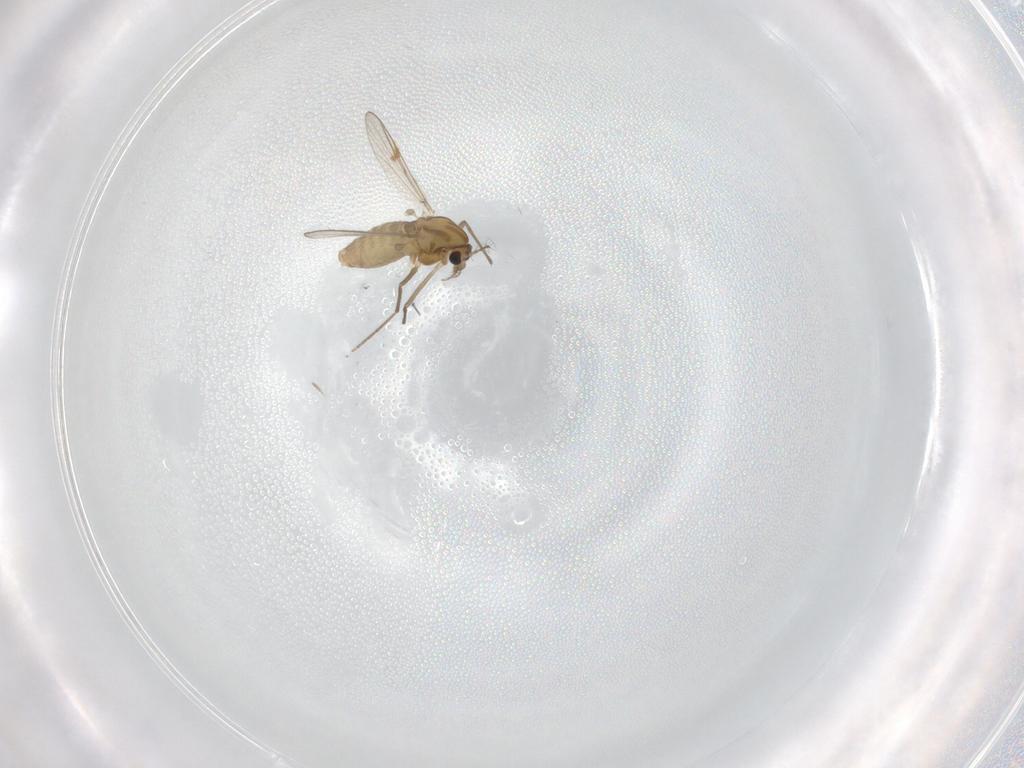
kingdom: Animalia
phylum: Arthropoda
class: Insecta
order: Diptera
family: Chironomidae
